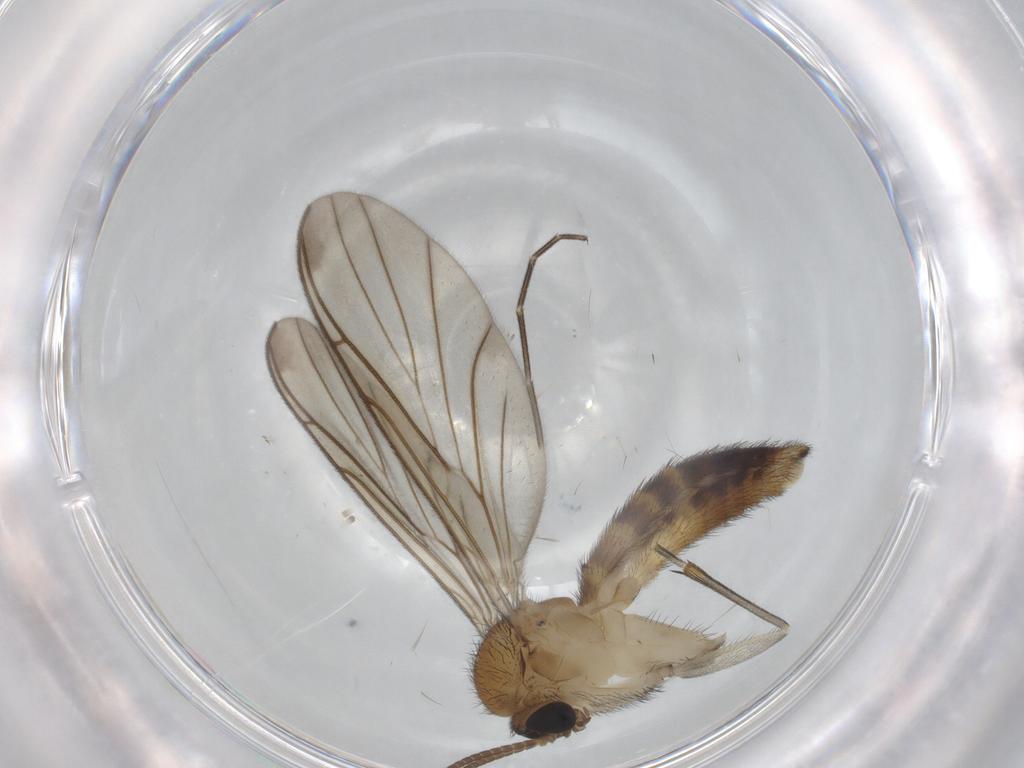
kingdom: Animalia
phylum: Arthropoda
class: Insecta
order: Diptera
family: Keroplatidae
